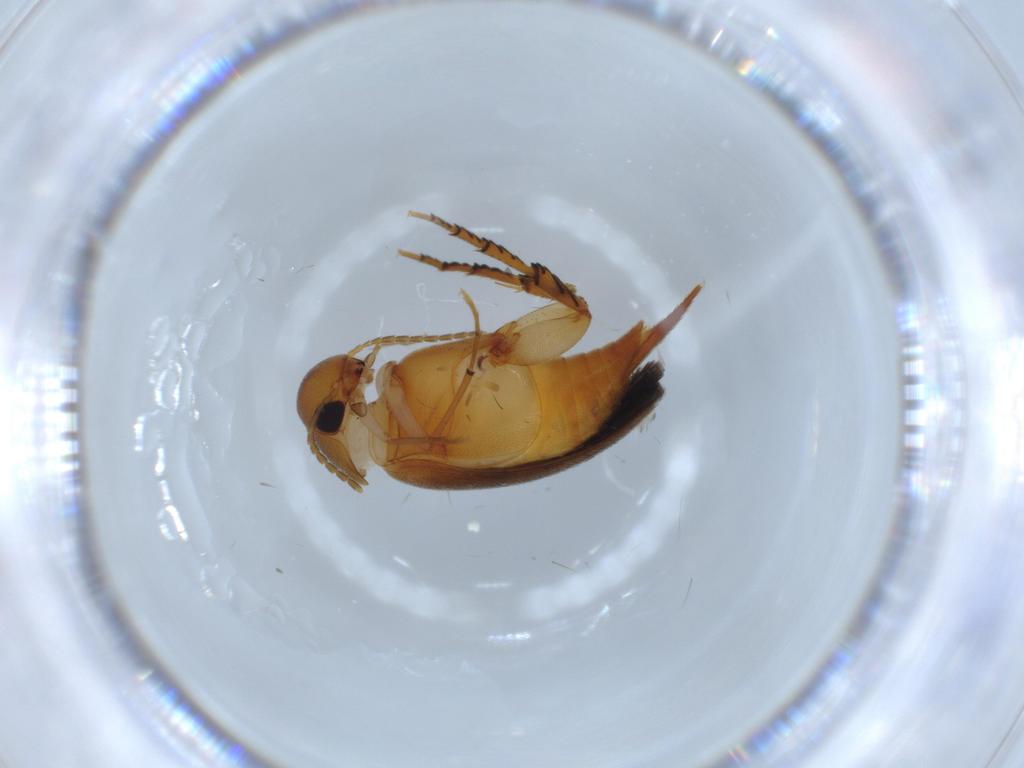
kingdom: Animalia
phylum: Arthropoda
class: Insecta
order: Coleoptera
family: Mordellidae
